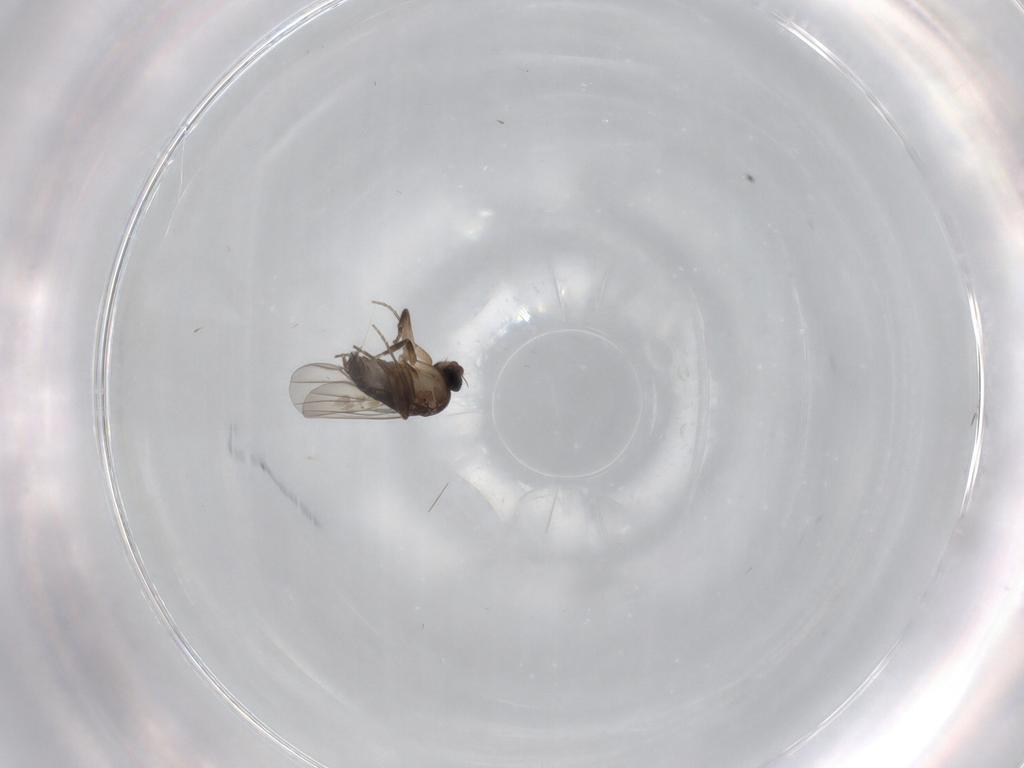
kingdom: Animalia
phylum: Arthropoda
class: Insecta
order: Diptera
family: Phoridae
